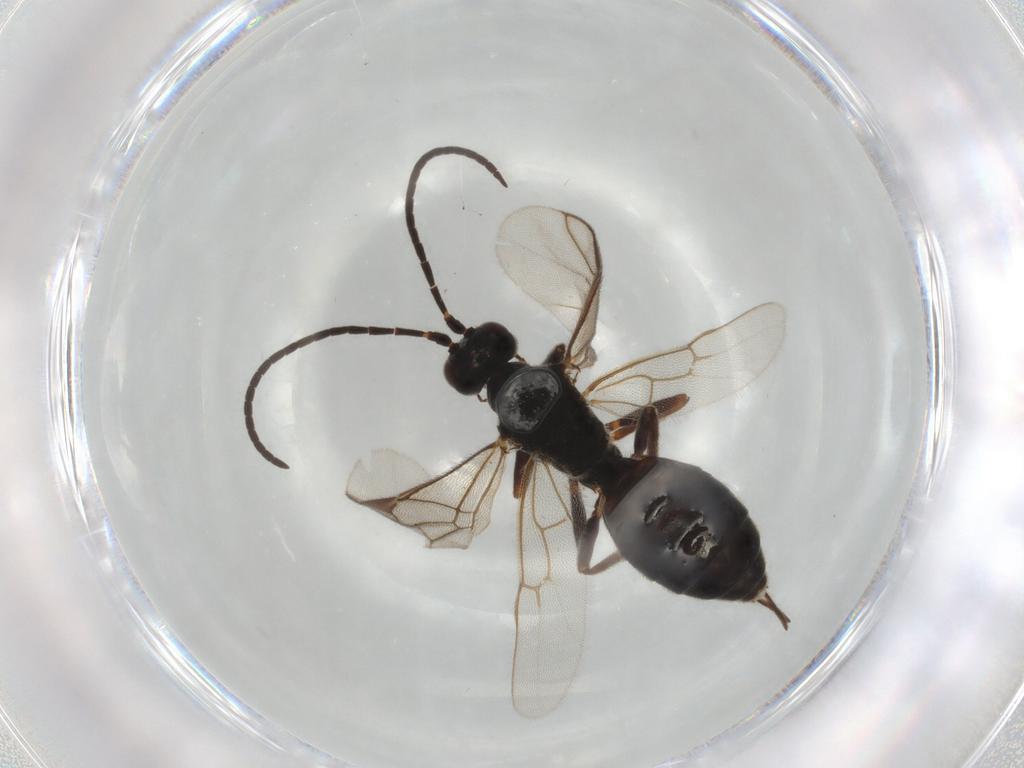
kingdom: Animalia
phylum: Arthropoda
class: Insecta
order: Hymenoptera
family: Ichneumonidae
